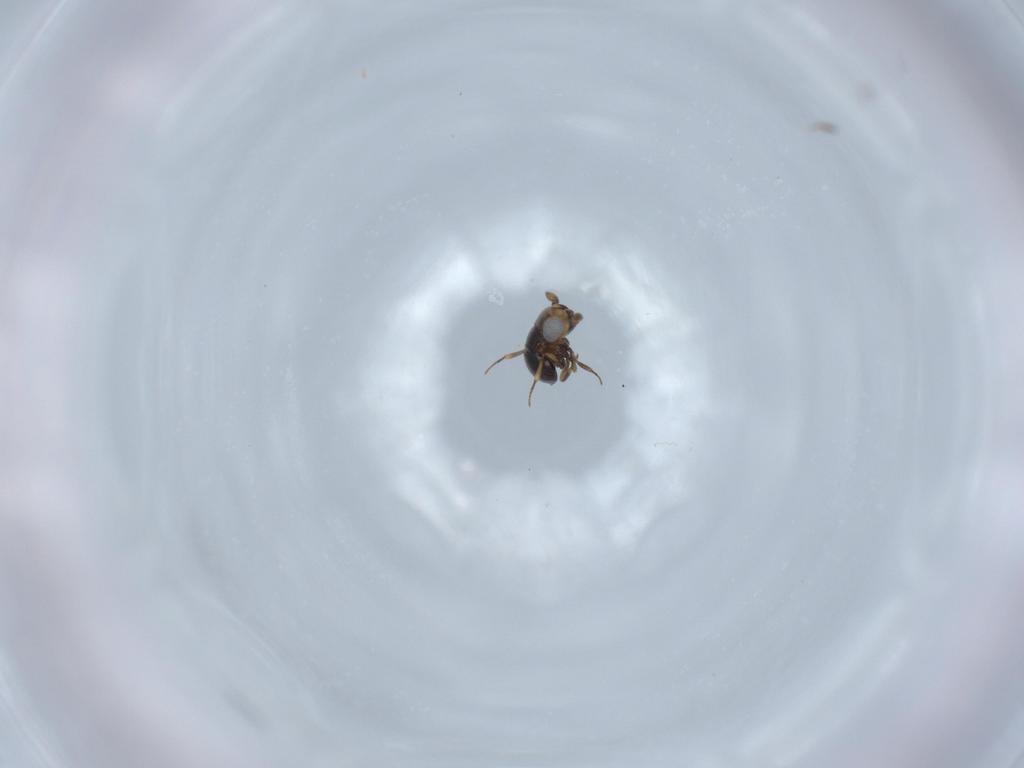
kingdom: Animalia
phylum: Arthropoda
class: Insecta
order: Hymenoptera
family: Scelionidae
